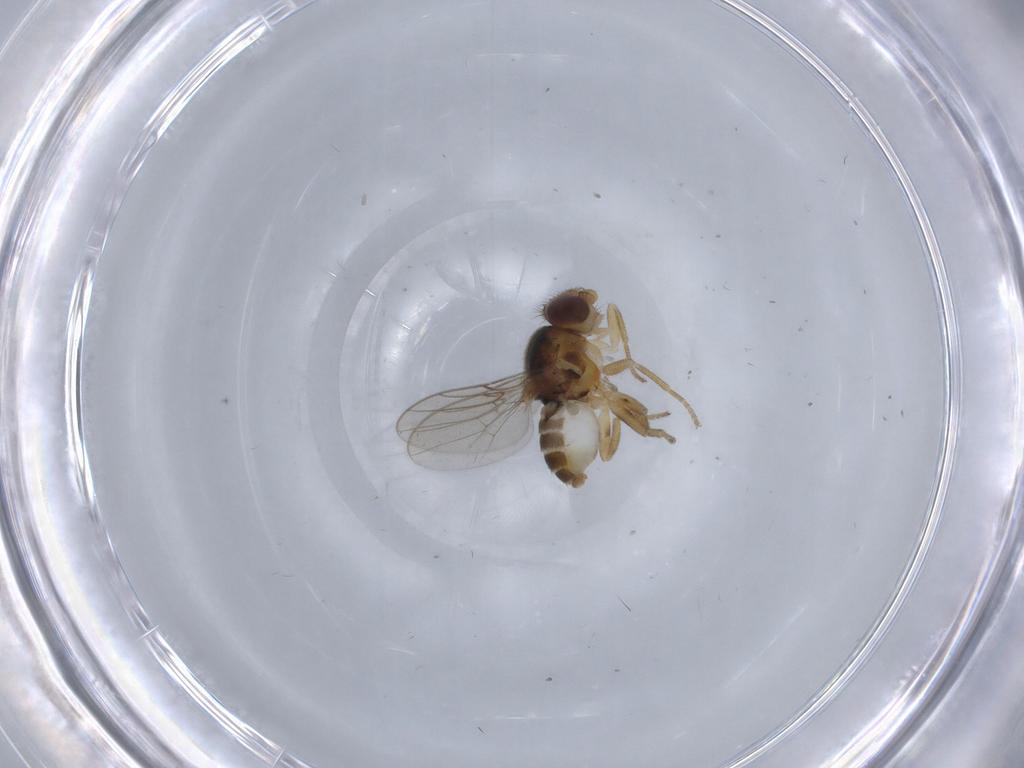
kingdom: Animalia
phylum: Arthropoda
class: Insecta
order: Diptera
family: Chloropidae
